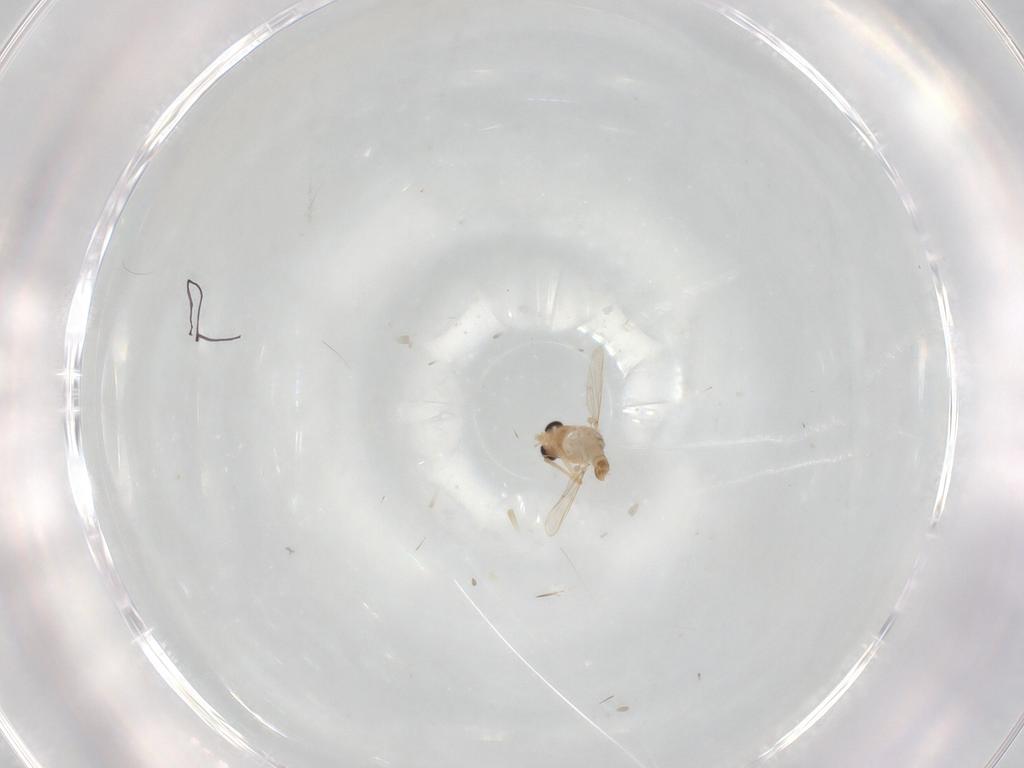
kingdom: Animalia
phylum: Arthropoda
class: Insecta
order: Diptera
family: Chironomidae
